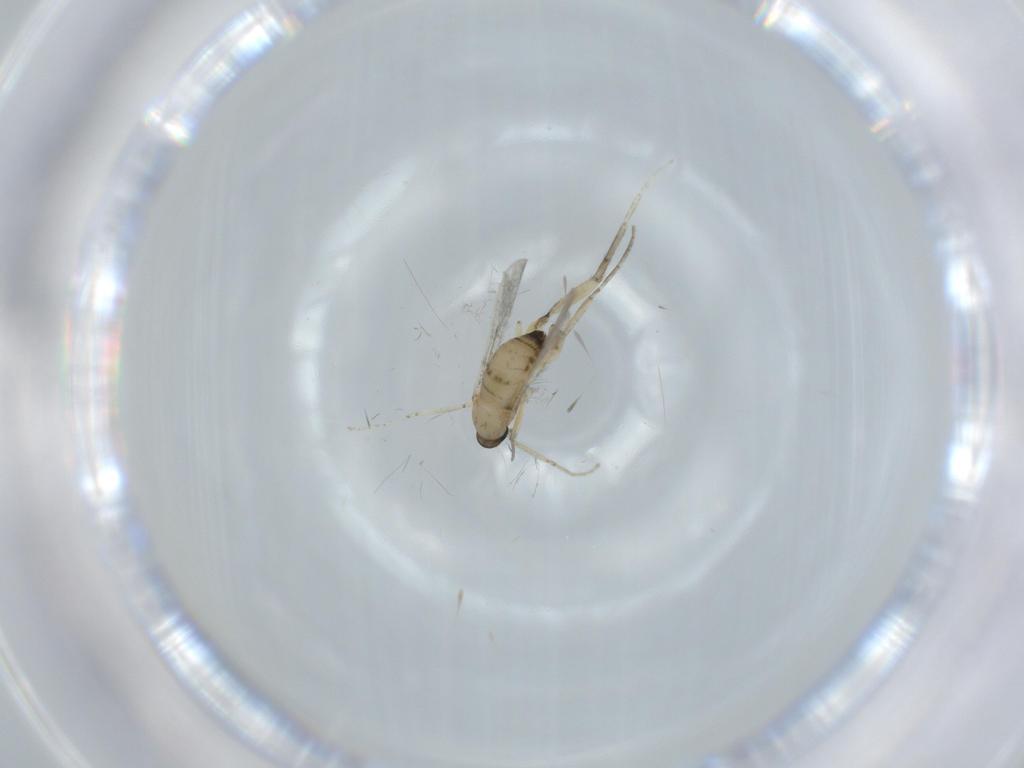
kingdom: Animalia
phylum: Arthropoda
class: Insecta
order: Diptera
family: Cecidomyiidae
